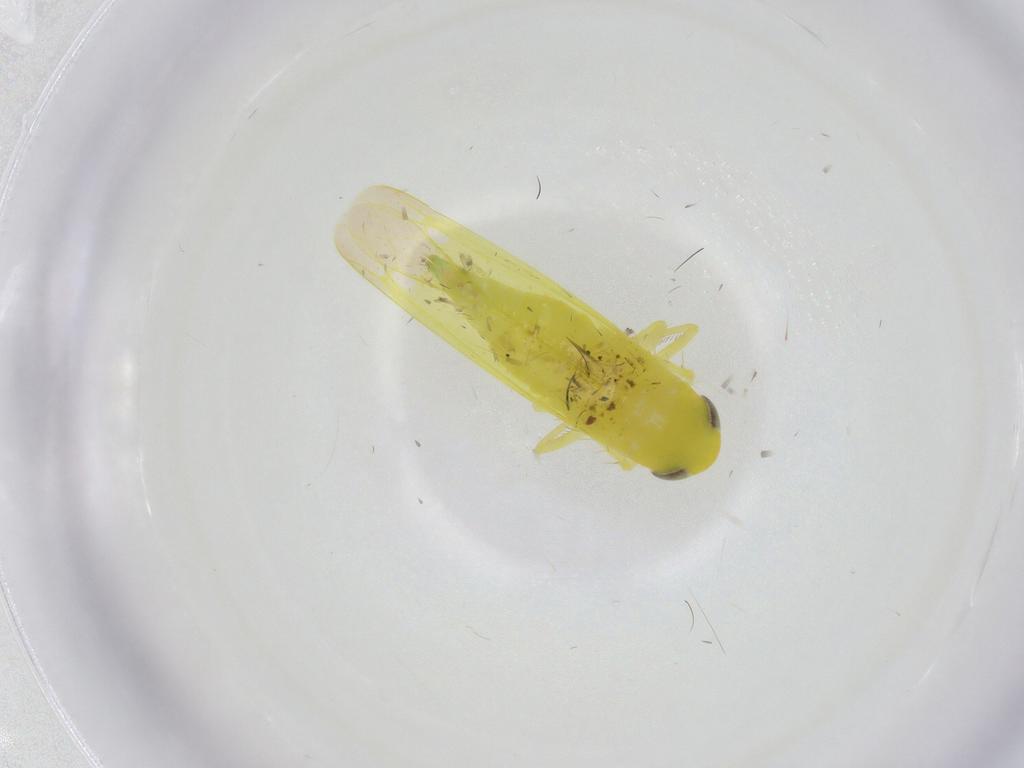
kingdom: Animalia
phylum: Arthropoda
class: Insecta
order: Hemiptera
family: Aphididae
